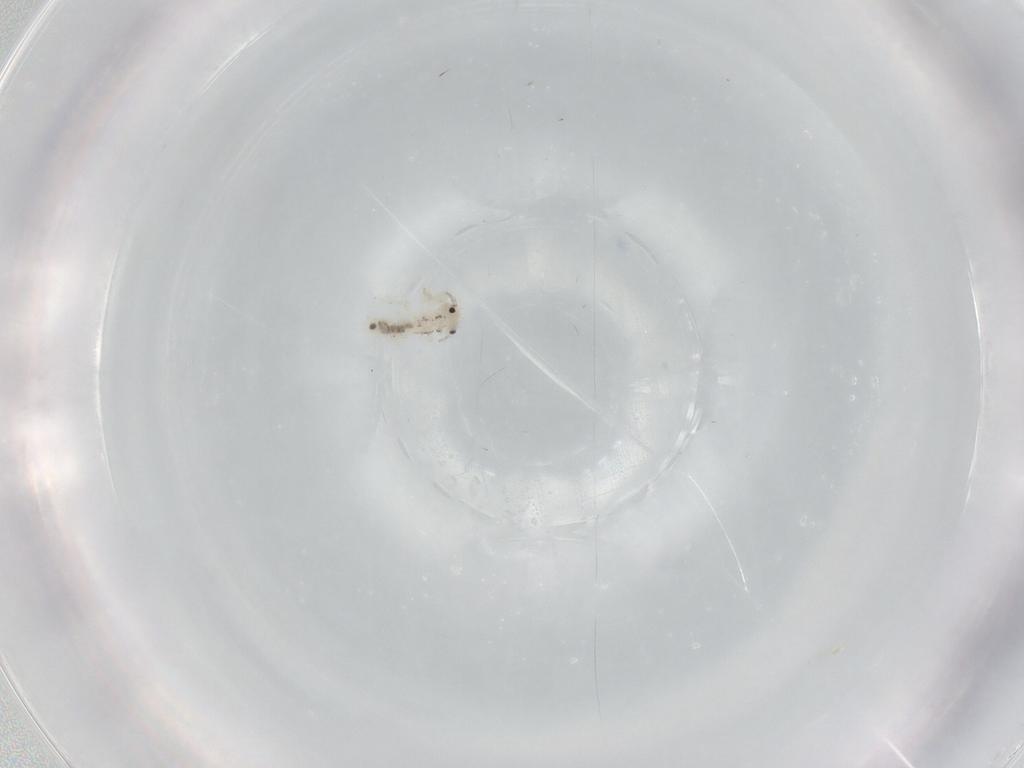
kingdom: Animalia
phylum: Arthropoda
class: Insecta
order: Psocodea
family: Lepidopsocidae
